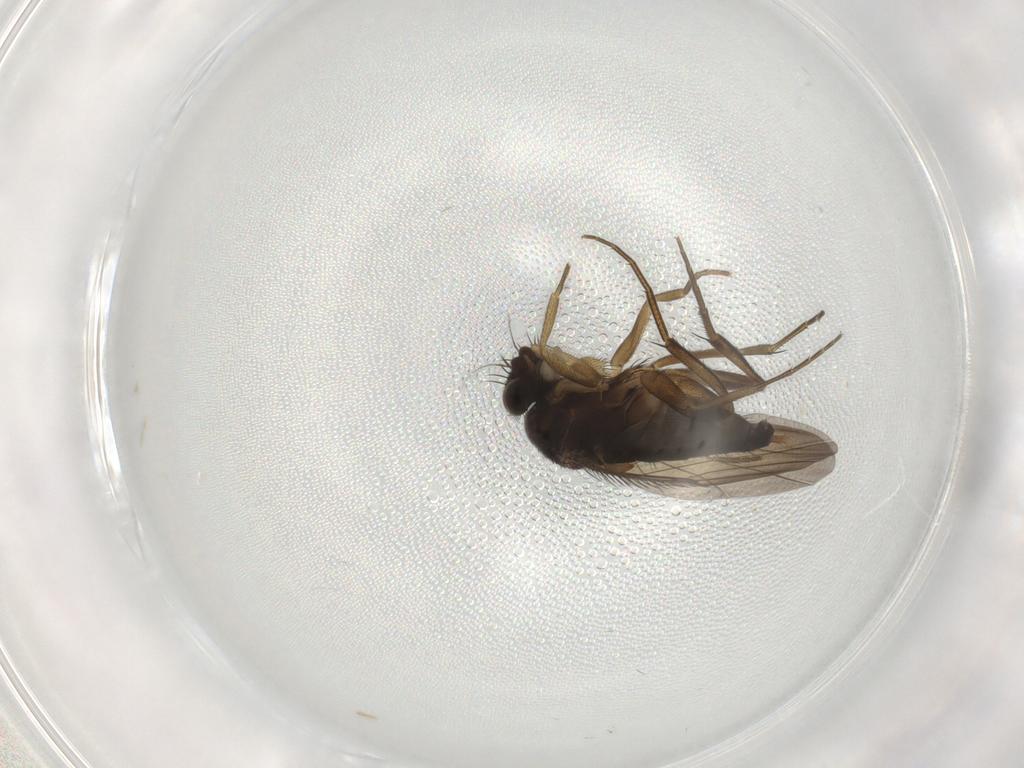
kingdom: Animalia
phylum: Arthropoda
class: Insecta
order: Diptera
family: Phoridae
